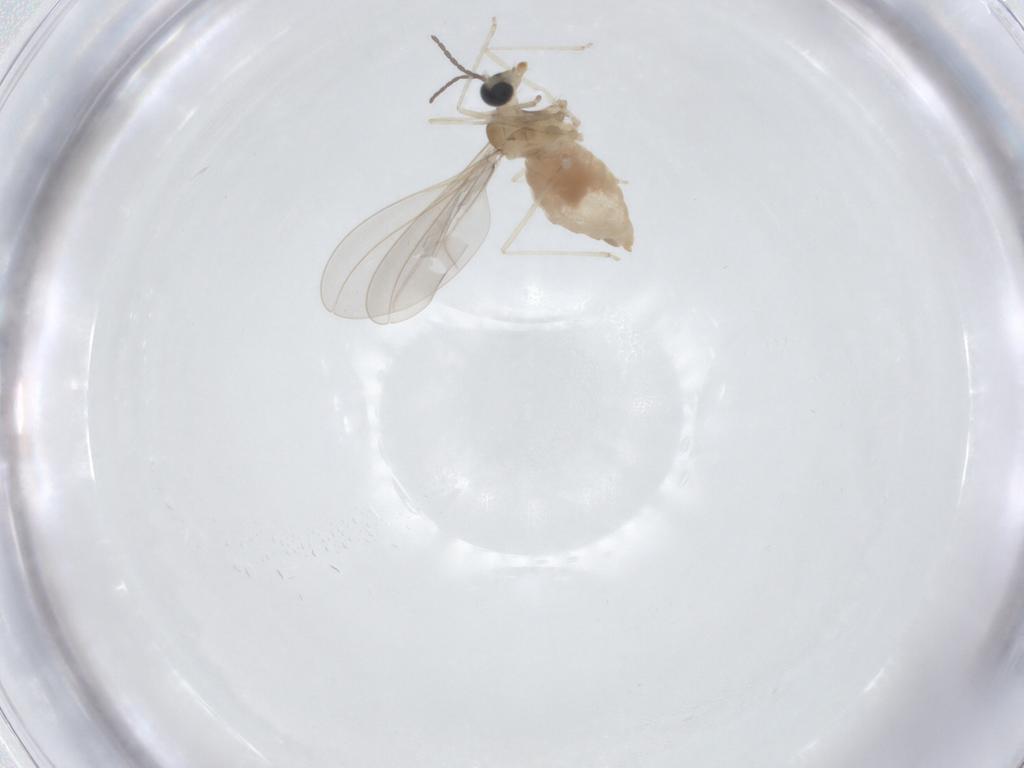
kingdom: Animalia
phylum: Arthropoda
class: Insecta
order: Diptera
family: Cecidomyiidae
